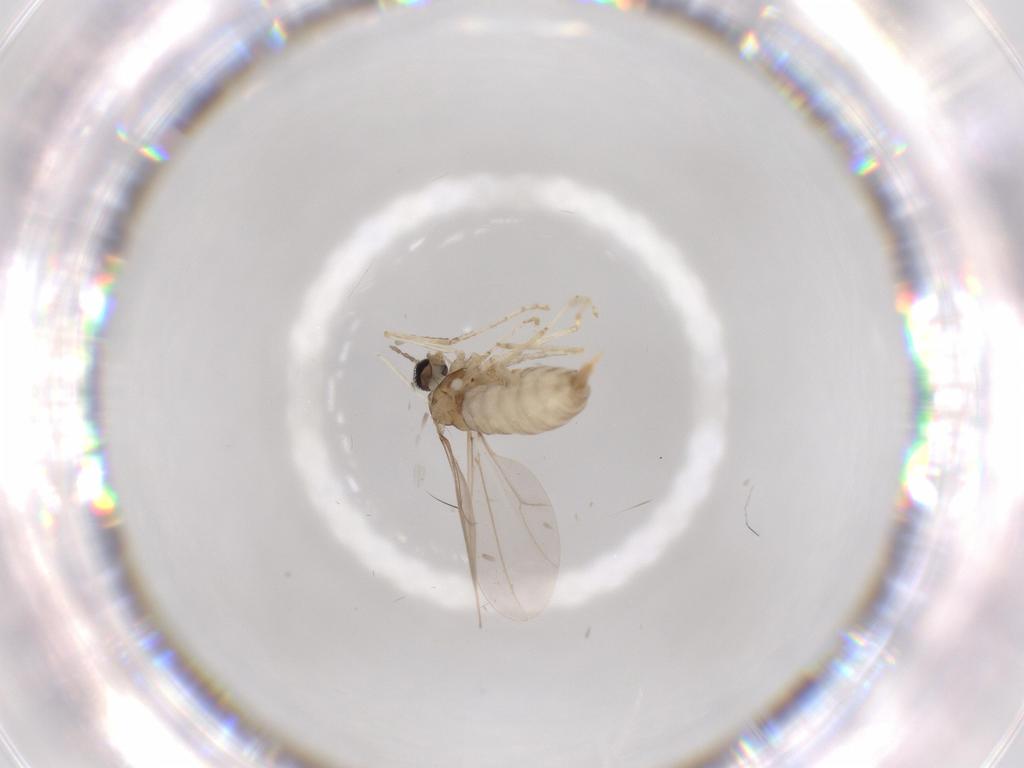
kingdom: Animalia
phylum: Arthropoda
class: Insecta
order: Diptera
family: Cecidomyiidae
